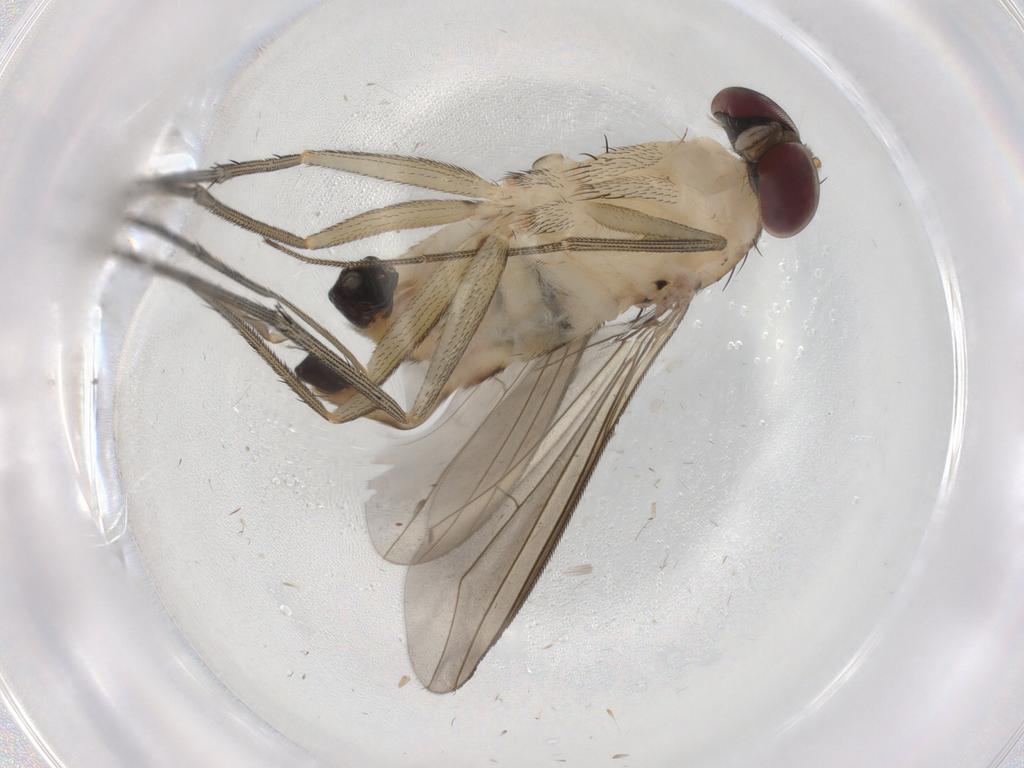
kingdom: Animalia
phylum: Arthropoda
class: Insecta
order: Diptera
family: Dolichopodidae
